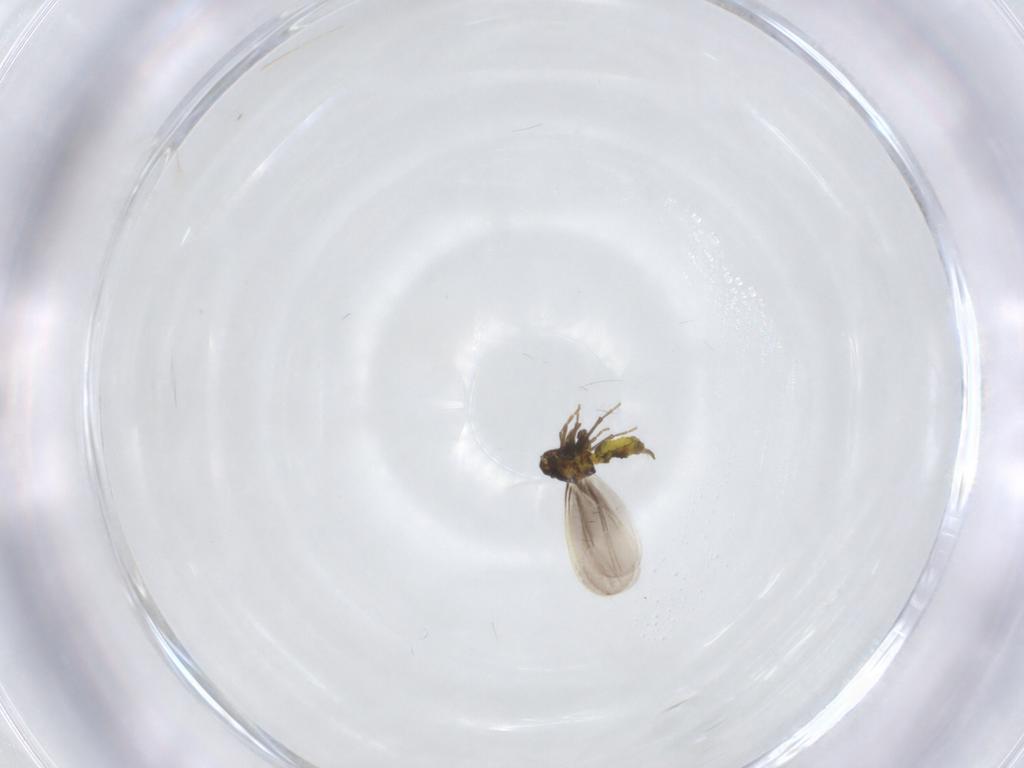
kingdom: Animalia
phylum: Arthropoda
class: Insecta
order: Hemiptera
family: Aleyrodidae
